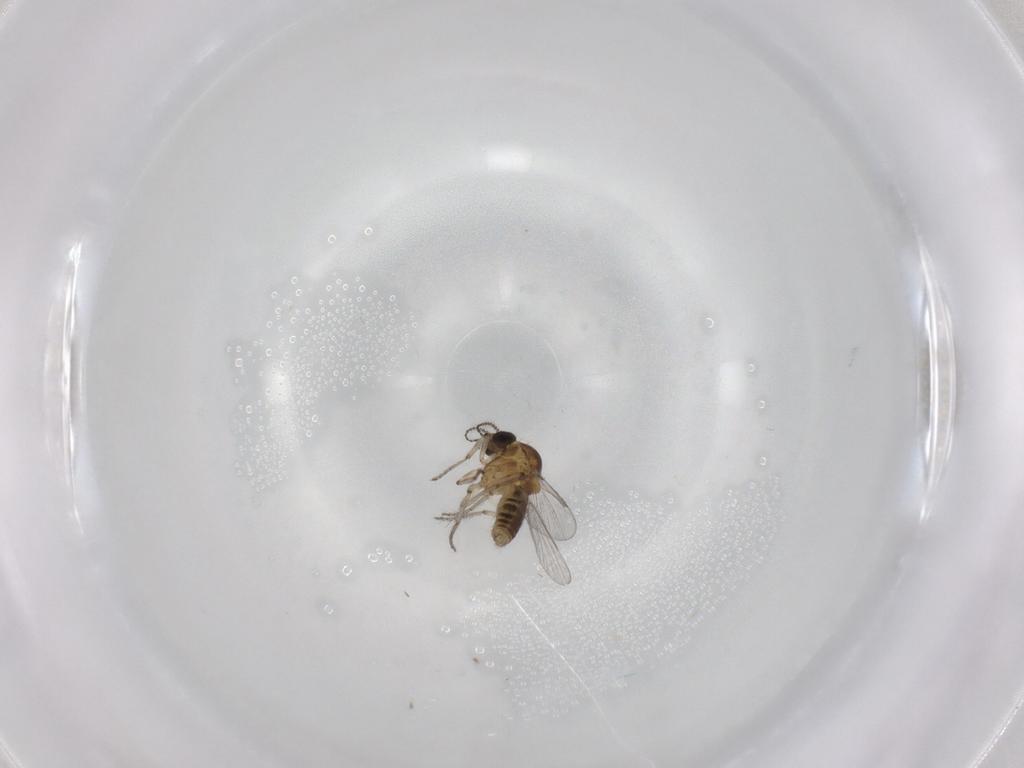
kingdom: Animalia
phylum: Arthropoda
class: Insecta
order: Diptera
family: Ceratopogonidae
